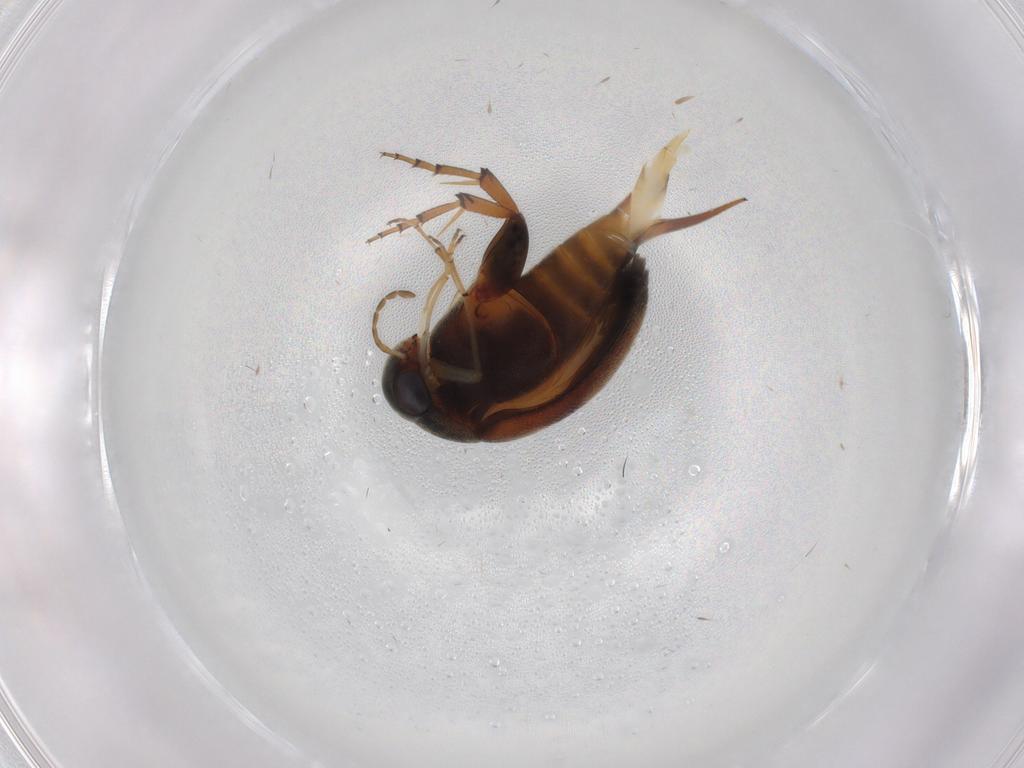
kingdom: Animalia
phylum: Arthropoda
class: Insecta
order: Coleoptera
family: Mordellidae
